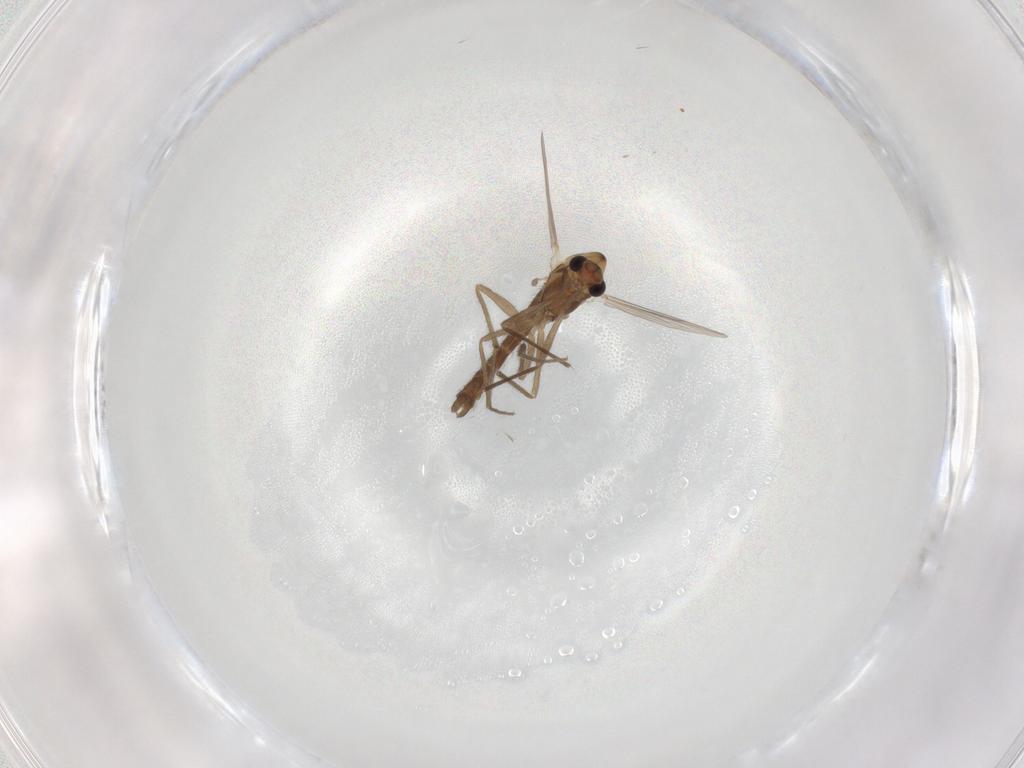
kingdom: Animalia
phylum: Arthropoda
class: Insecta
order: Diptera
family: Chironomidae
